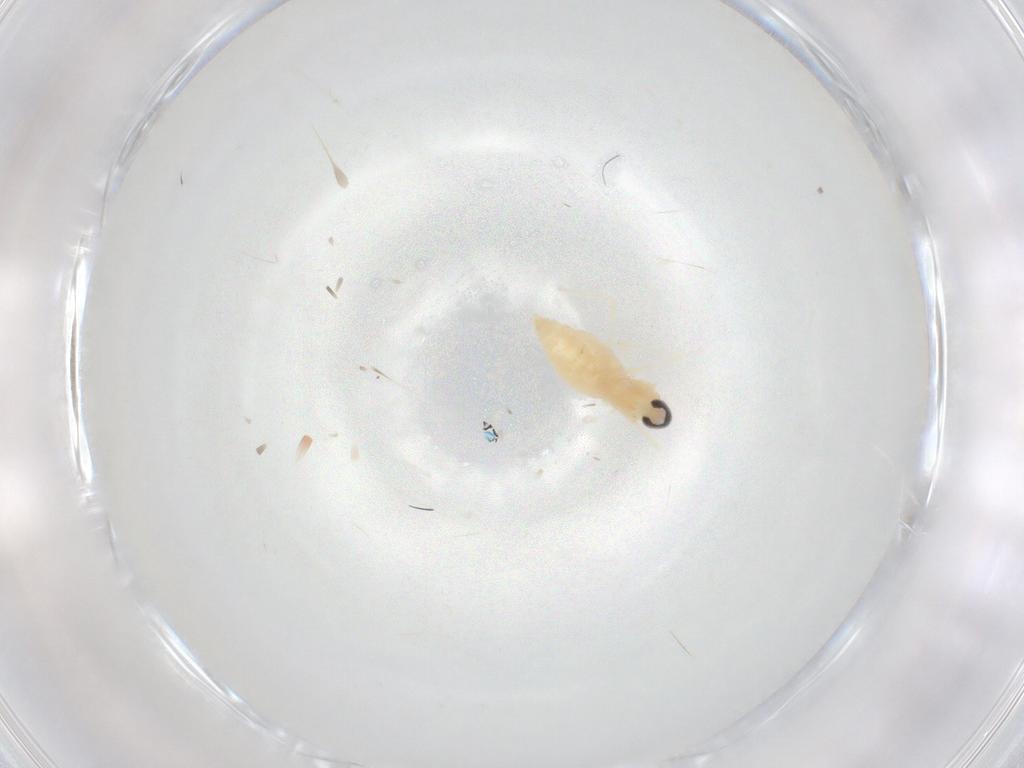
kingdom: Animalia
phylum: Arthropoda
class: Insecta
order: Diptera
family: Cecidomyiidae
